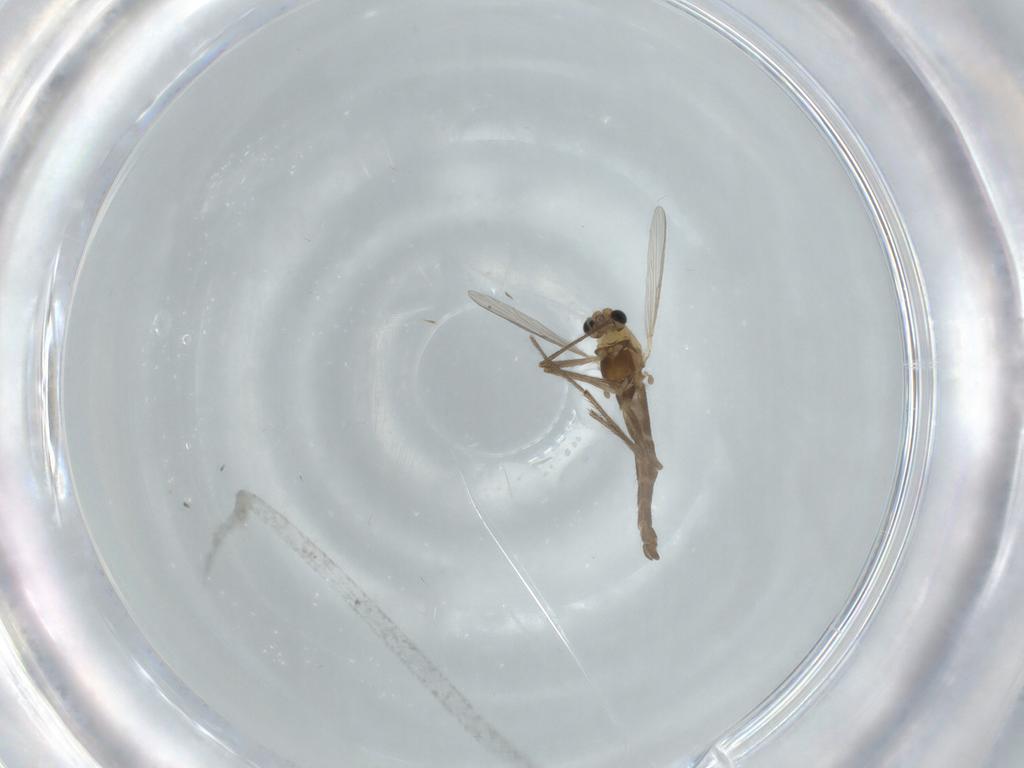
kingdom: Animalia
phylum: Arthropoda
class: Insecta
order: Diptera
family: Chironomidae
